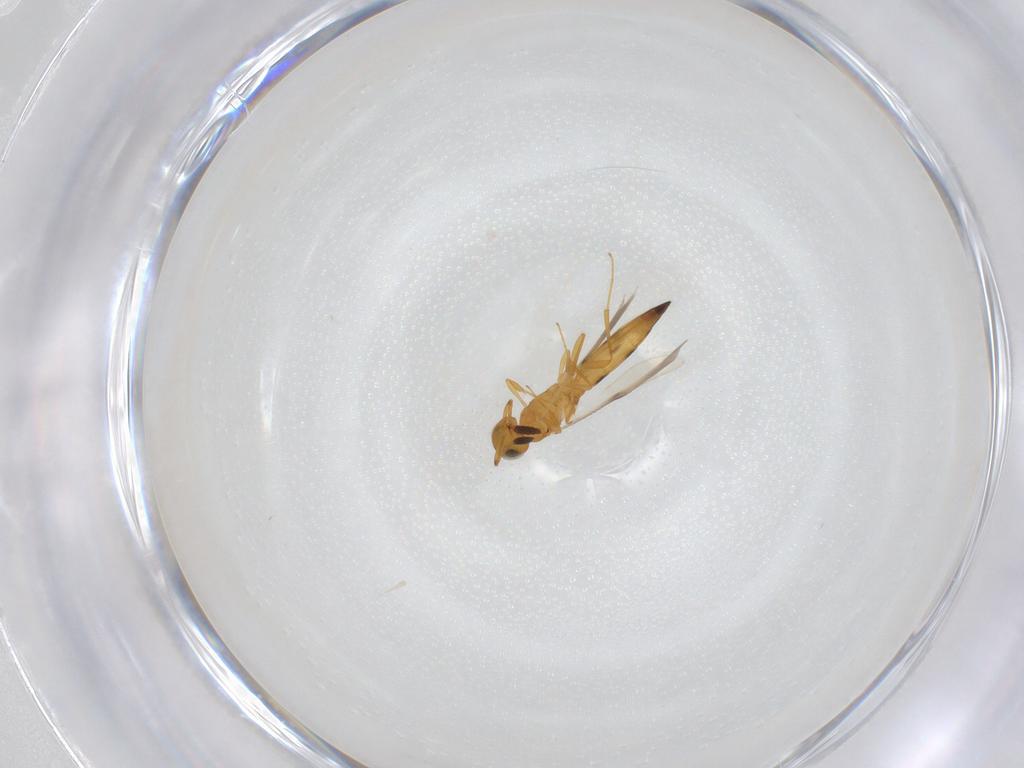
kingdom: Animalia
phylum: Arthropoda
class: Insecta
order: Hymenoptera
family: Scelionidae
